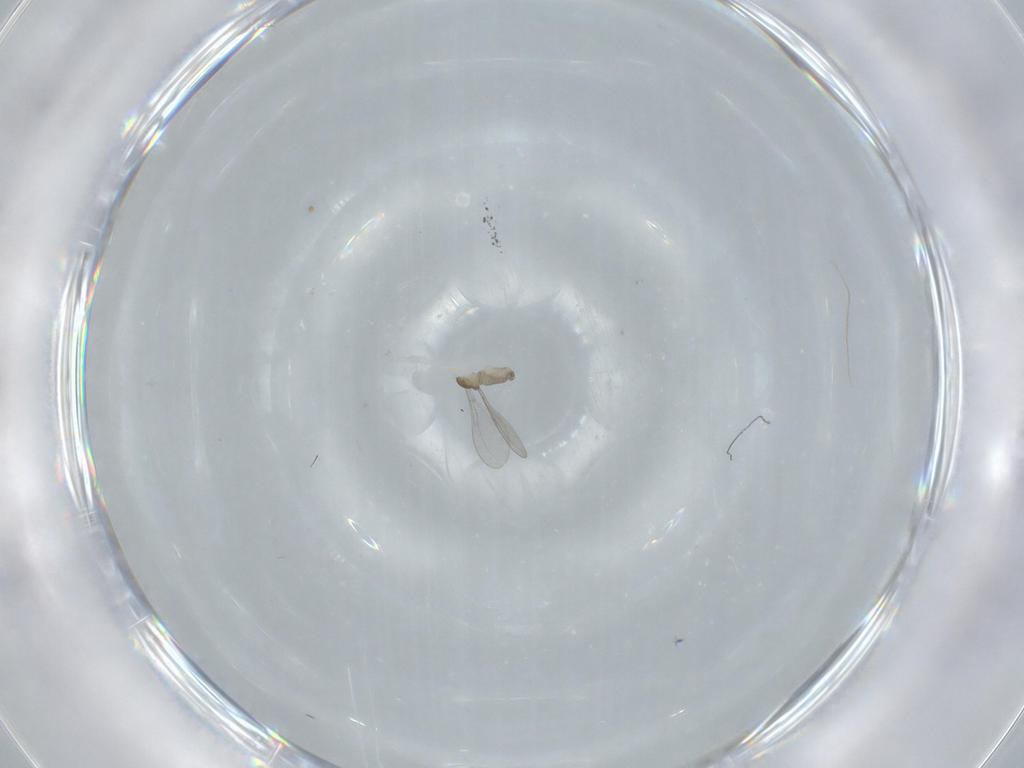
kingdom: Animalia
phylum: Arthropoda
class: Insecta
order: Diptera
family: Cecidomyiidae
